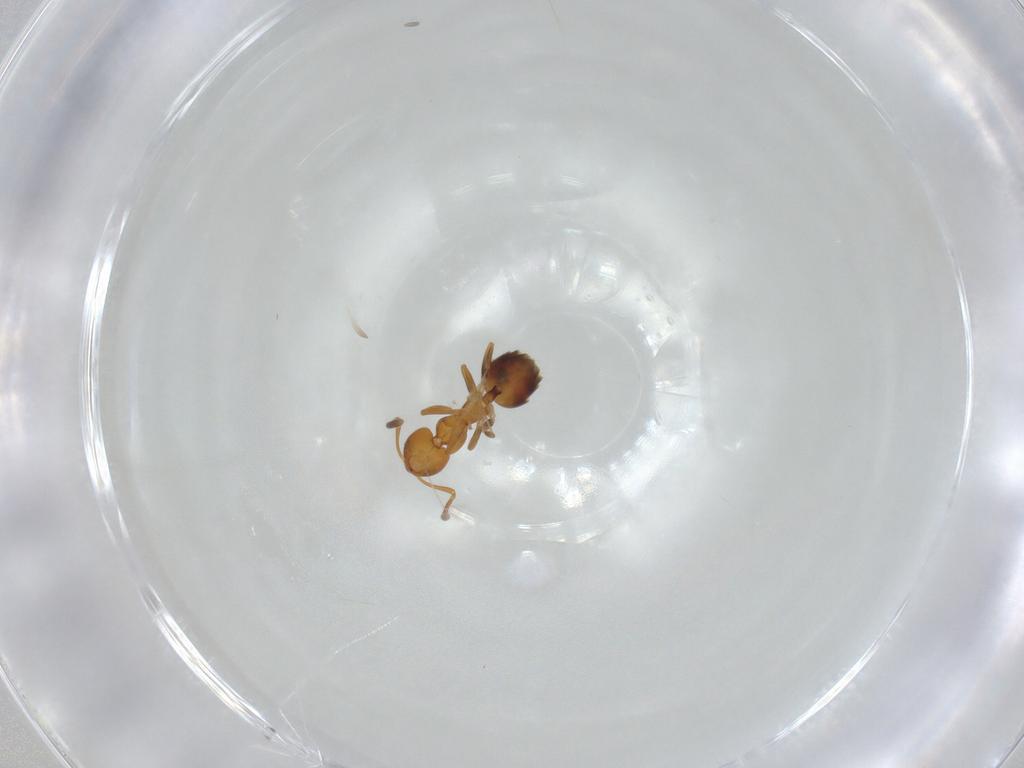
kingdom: Animalia
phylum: Arthropoda
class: Insecta
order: Hymenoptera
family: Formicidae
